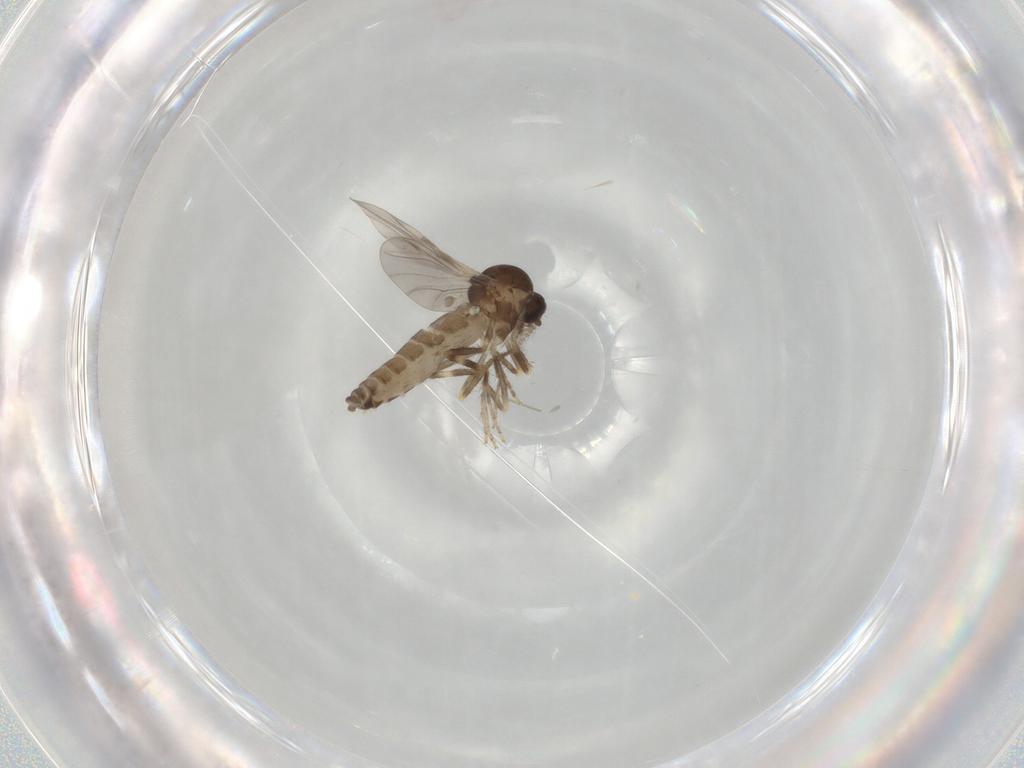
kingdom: Animalia
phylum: Arthropoda
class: Insecta
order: Diptera
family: Ceratopogonidae
